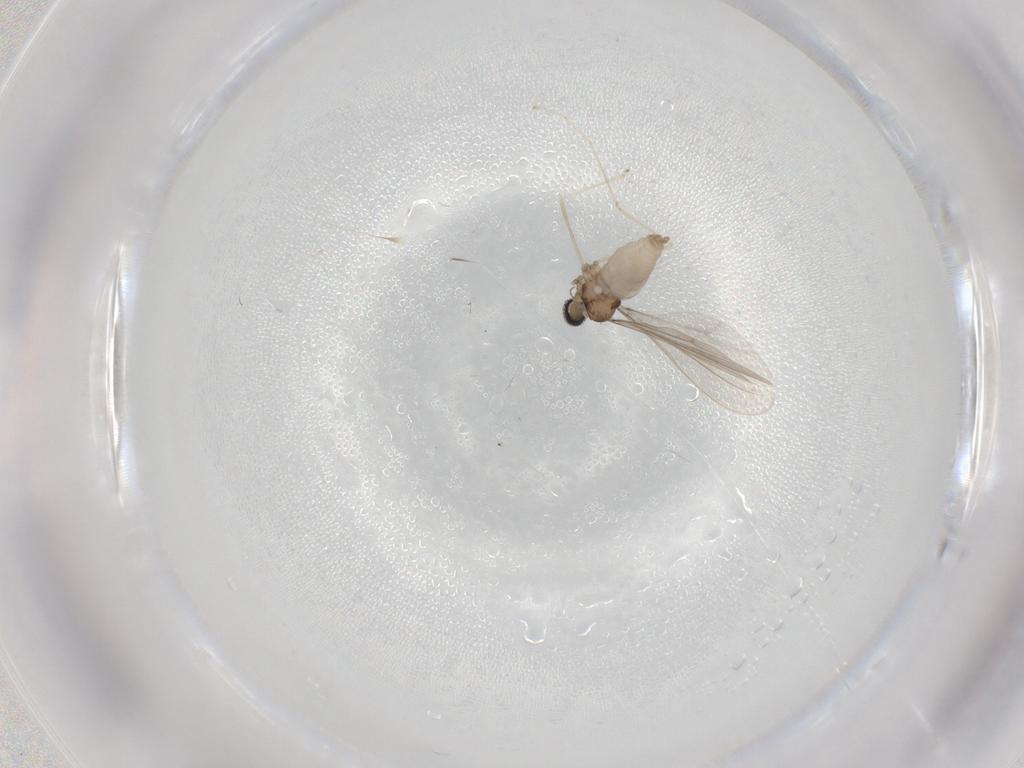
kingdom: Animalia
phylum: Arthropoda
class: Insecta
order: Diptera
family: Cecidomyiidae
